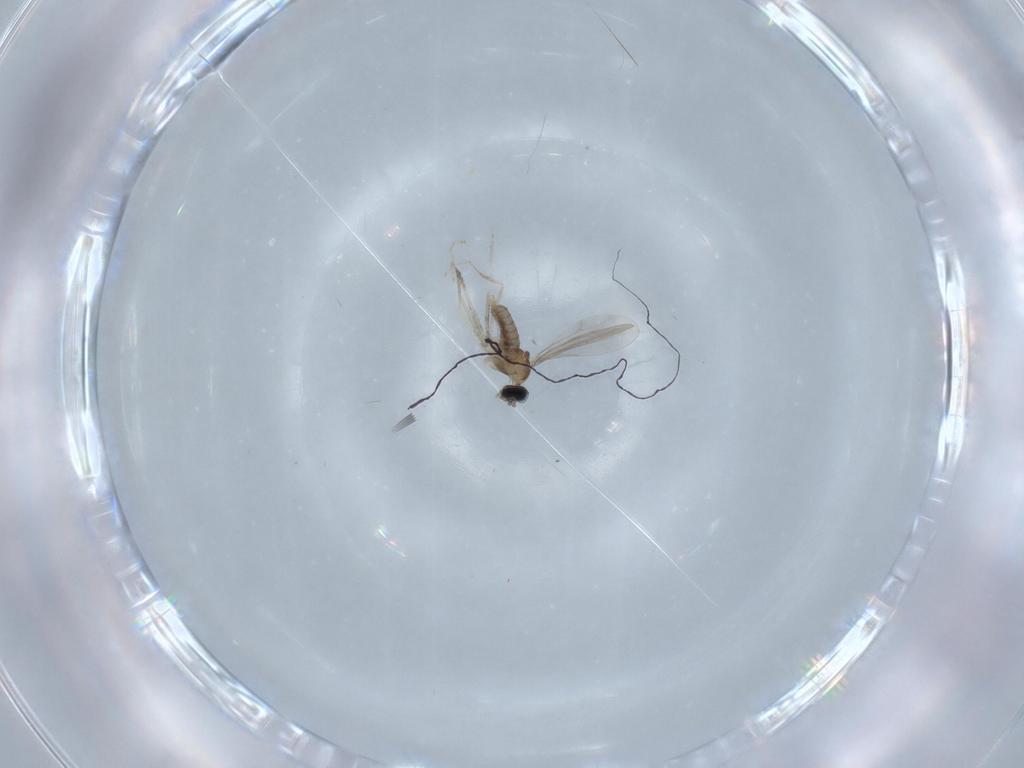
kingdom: Animalia
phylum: Arthropoda
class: Insecta
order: Diptera
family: Cecidomyiidae
